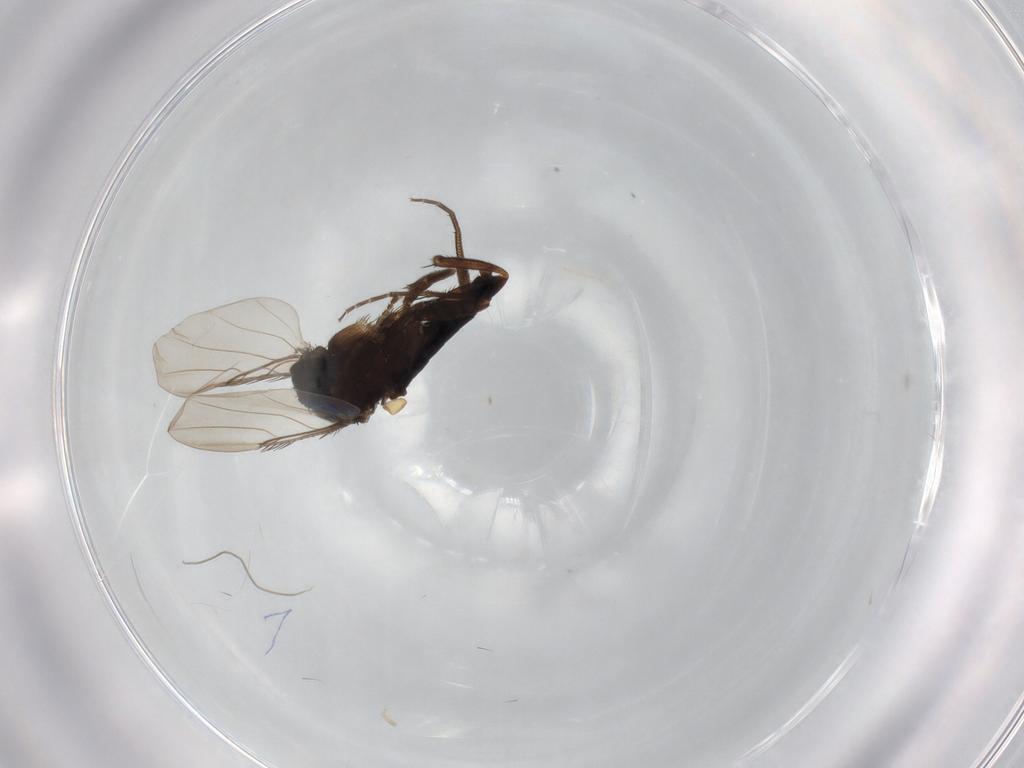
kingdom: Animalia
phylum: Arthropoda
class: Insecta
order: Diptera
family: Phoridae
